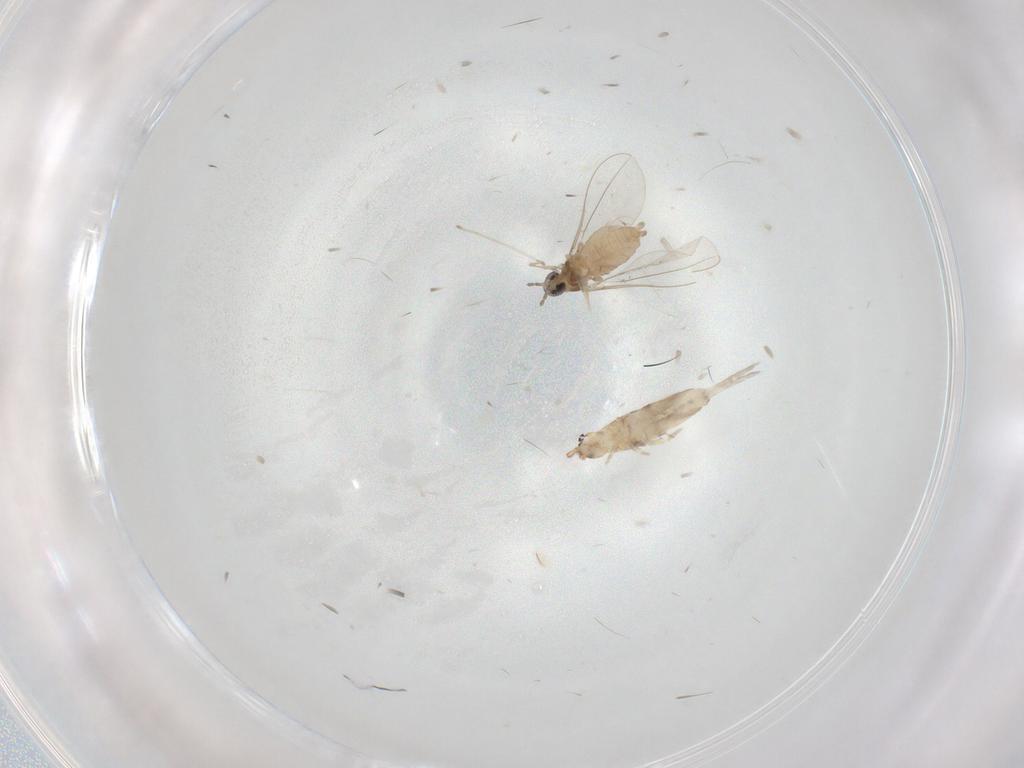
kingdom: Animalia
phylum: Arthropoda
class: Collembola
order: Entomobryomorpha
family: Entomobryidae
